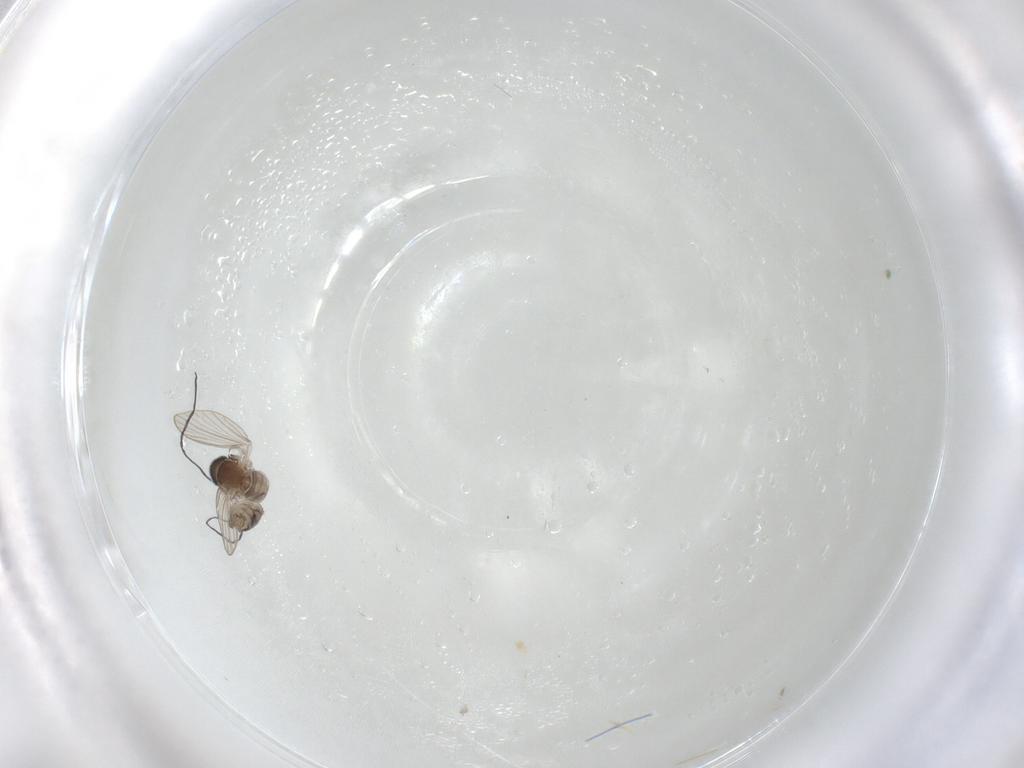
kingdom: Animalia
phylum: Arthropoda
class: Insecta
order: Diptera
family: Psychodidae
